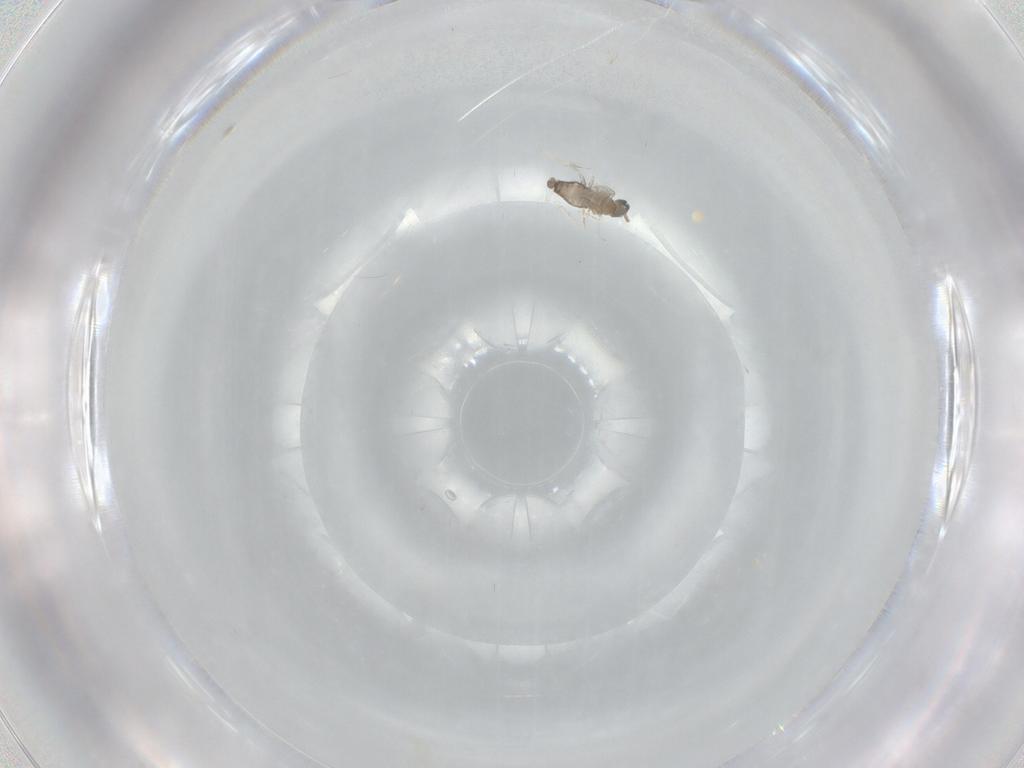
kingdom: Animalia
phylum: Arthropoda
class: Insecta
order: Diptera
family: Cecidomyiidae
